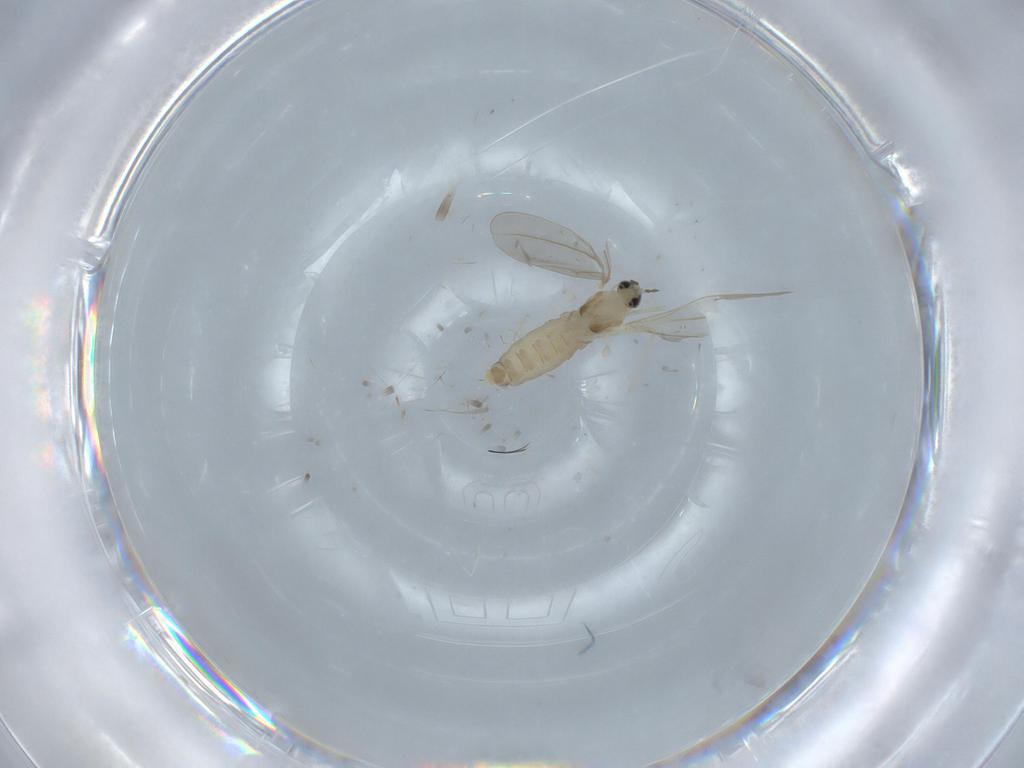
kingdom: Animalia
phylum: Arthropoda
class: Insecta
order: Diptera
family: Cecidomyiidae
